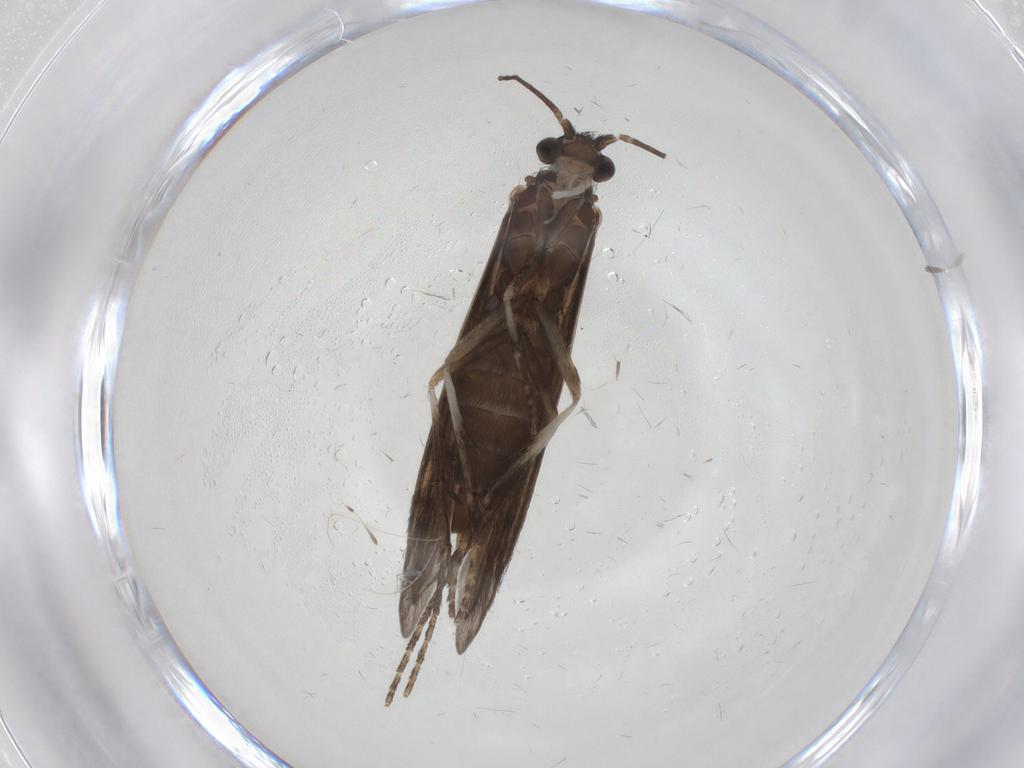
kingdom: Animalia
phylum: Arthropoda
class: Insecta
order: Trichoptera
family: Xiphocentronidae
